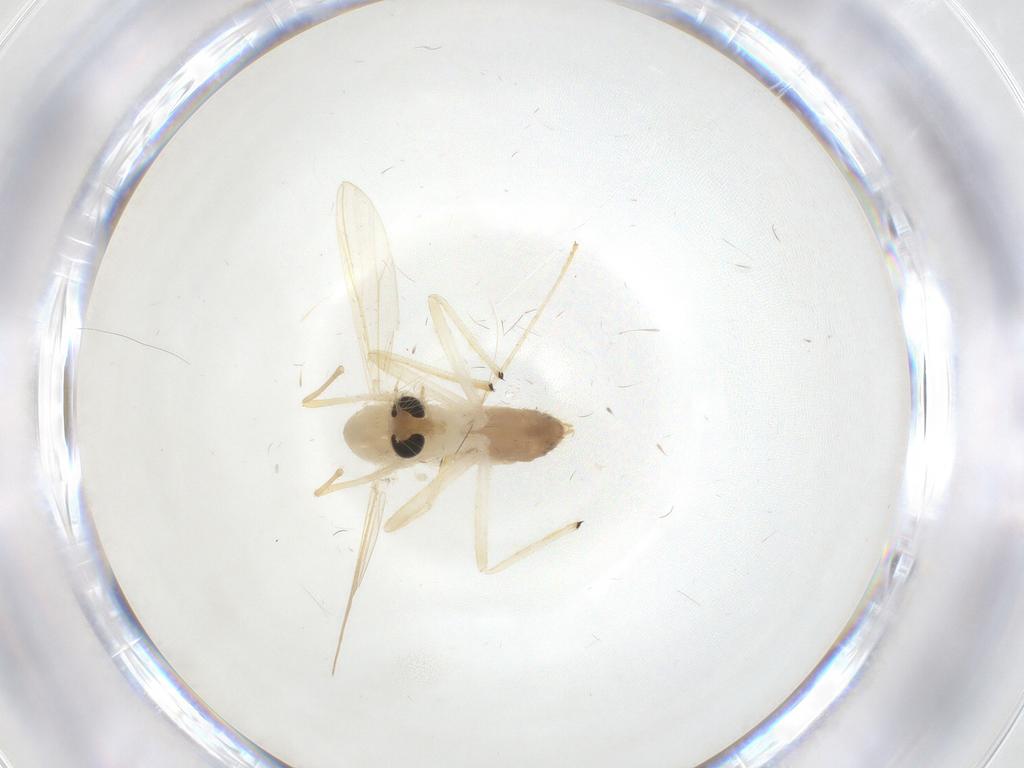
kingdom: Animalia
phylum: Arthropoda
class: Insecta
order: Diptera
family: Chironomidae
